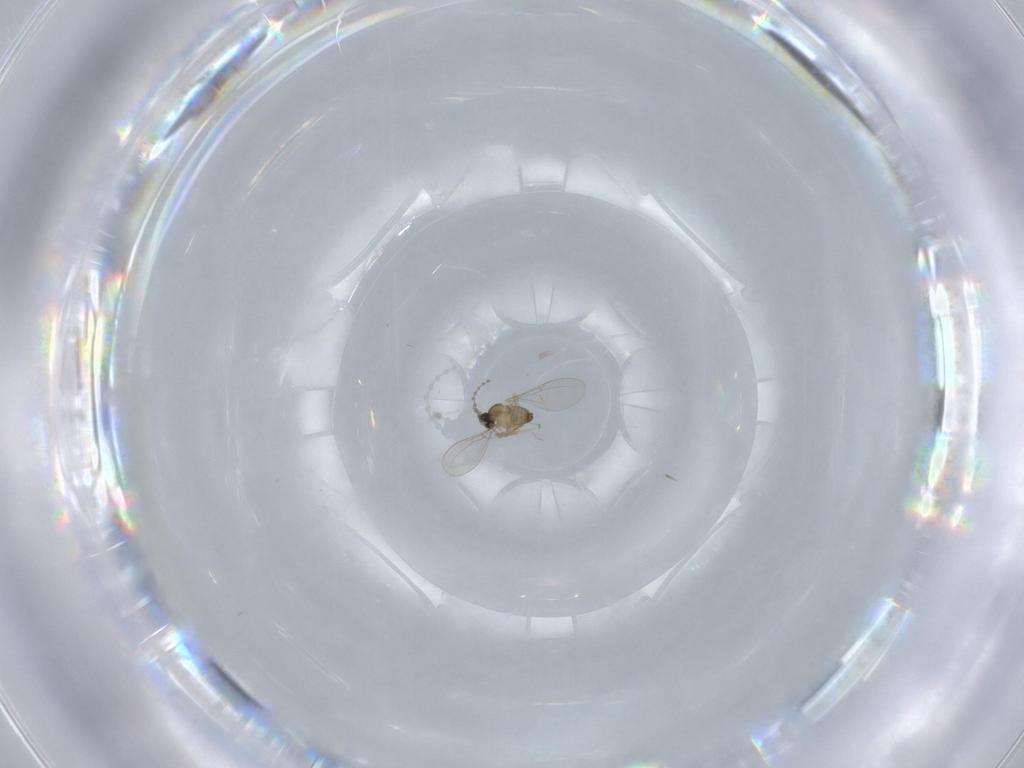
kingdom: Animalia
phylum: Arthropoda
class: Insecta
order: Diptera
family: Cecidomyiidae
